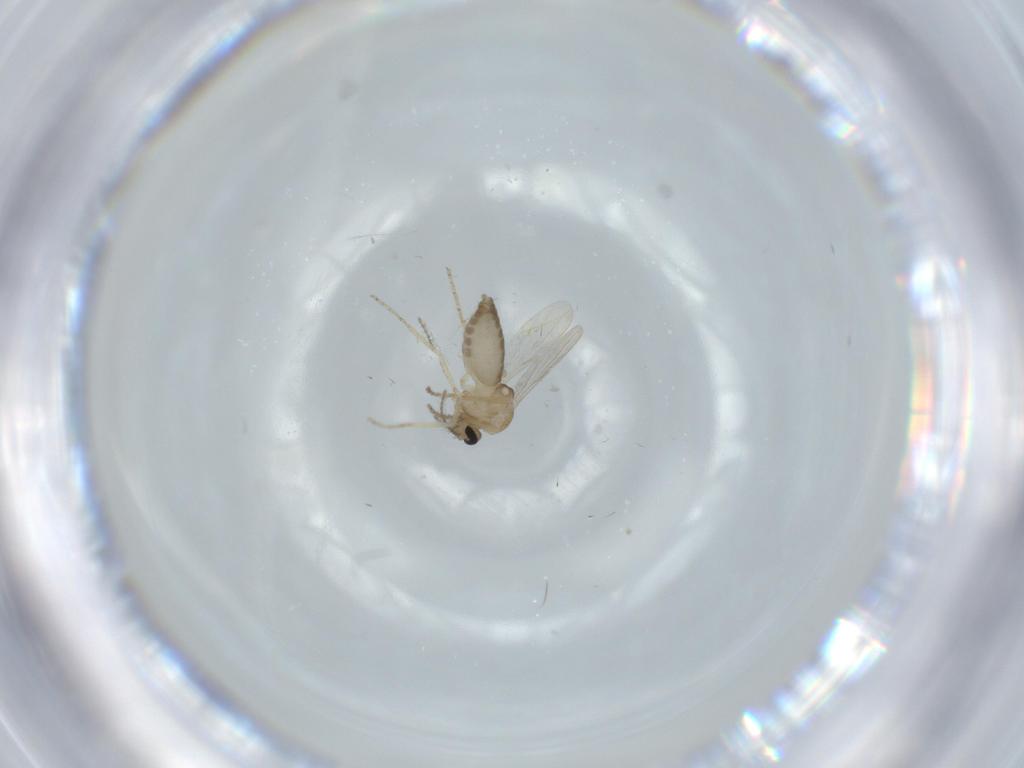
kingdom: Animalia
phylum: Arthropoda
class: Insecta
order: Diptera
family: Ceratopogonidae
